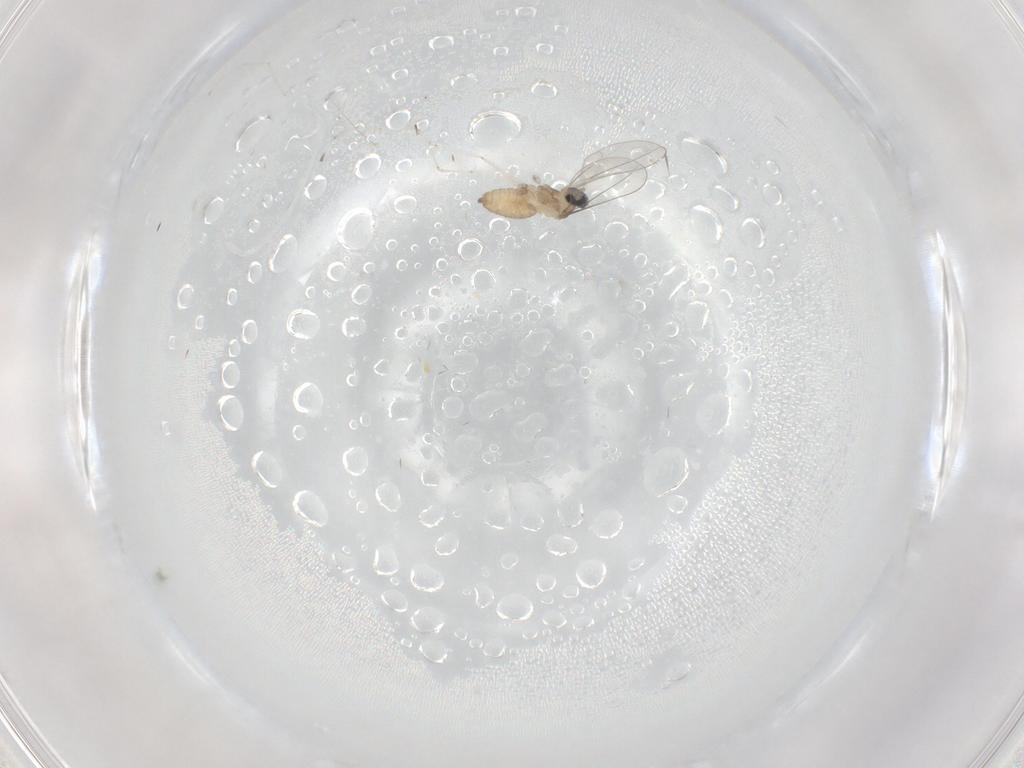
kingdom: Animalia
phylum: Arthropoda
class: Insecta
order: Diptera
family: Cecidomyiidae
